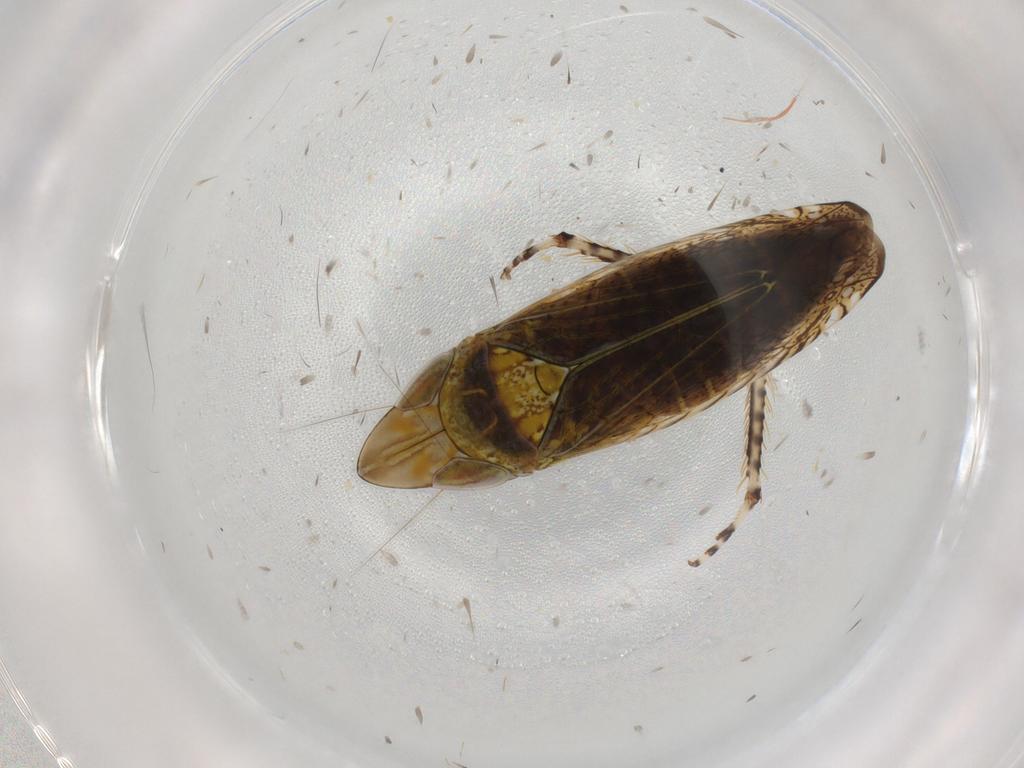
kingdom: Animalia
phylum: Arthropoda
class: Insecta
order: Hemiptera
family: Cicadellidae
